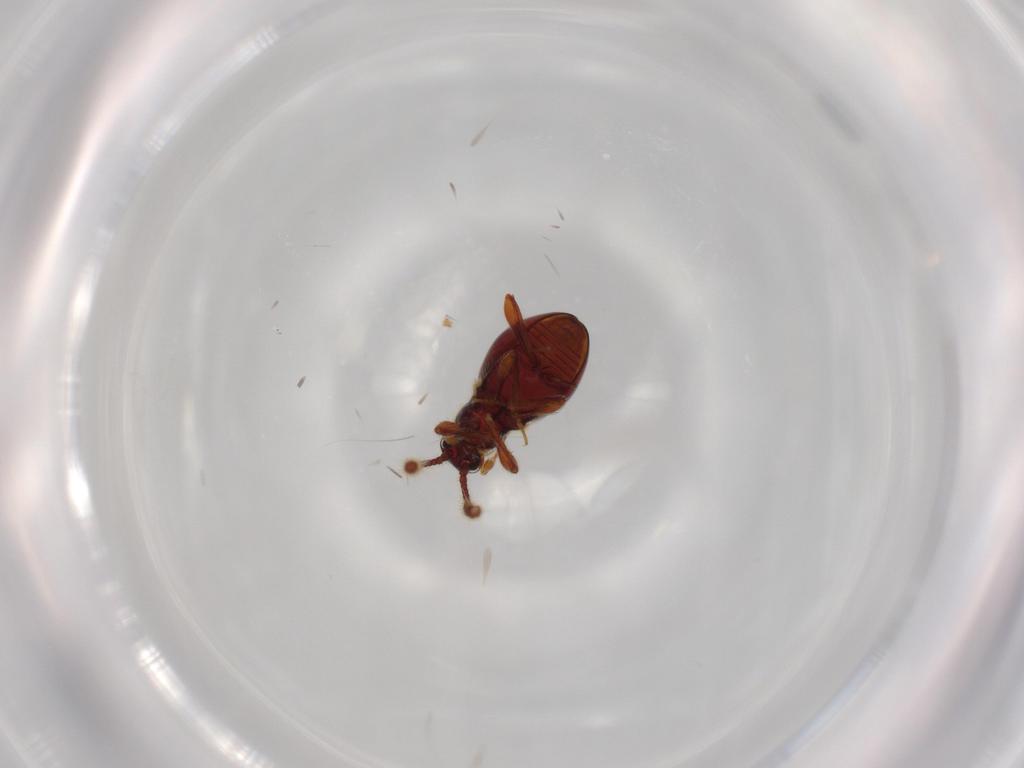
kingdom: Animalia
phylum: Arthropoda
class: Insecta
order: Coleoptera
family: Staphylinidae
